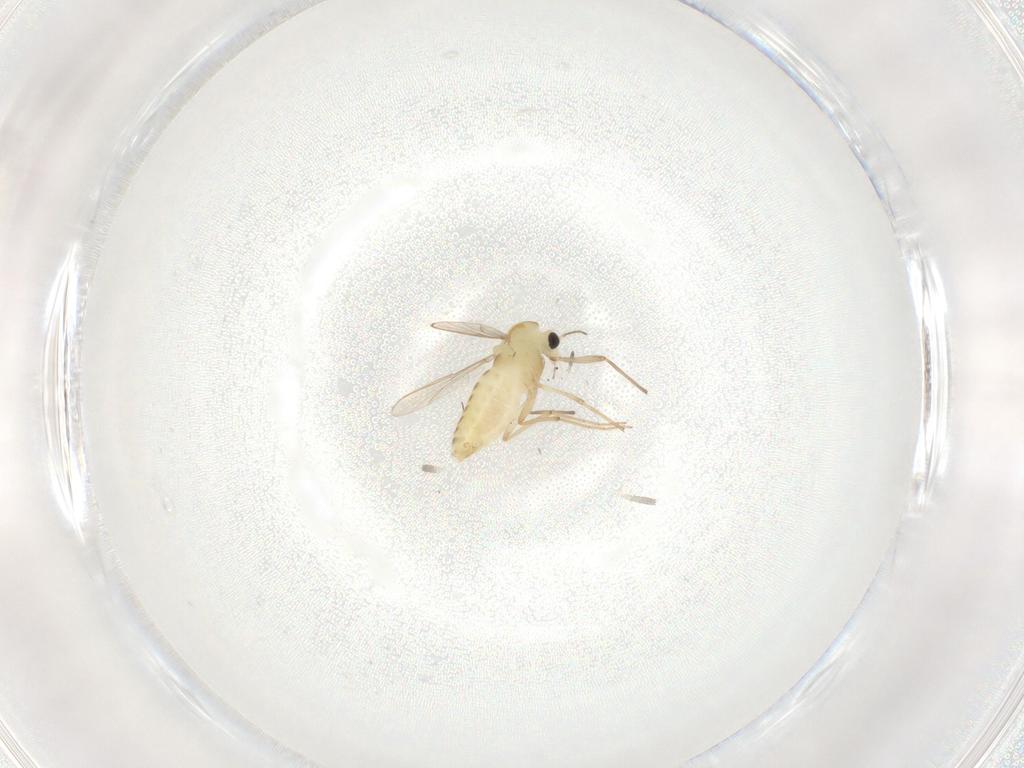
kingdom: Animalia
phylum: Arthropoda
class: Insecta
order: Diptera
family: Chironomidae
